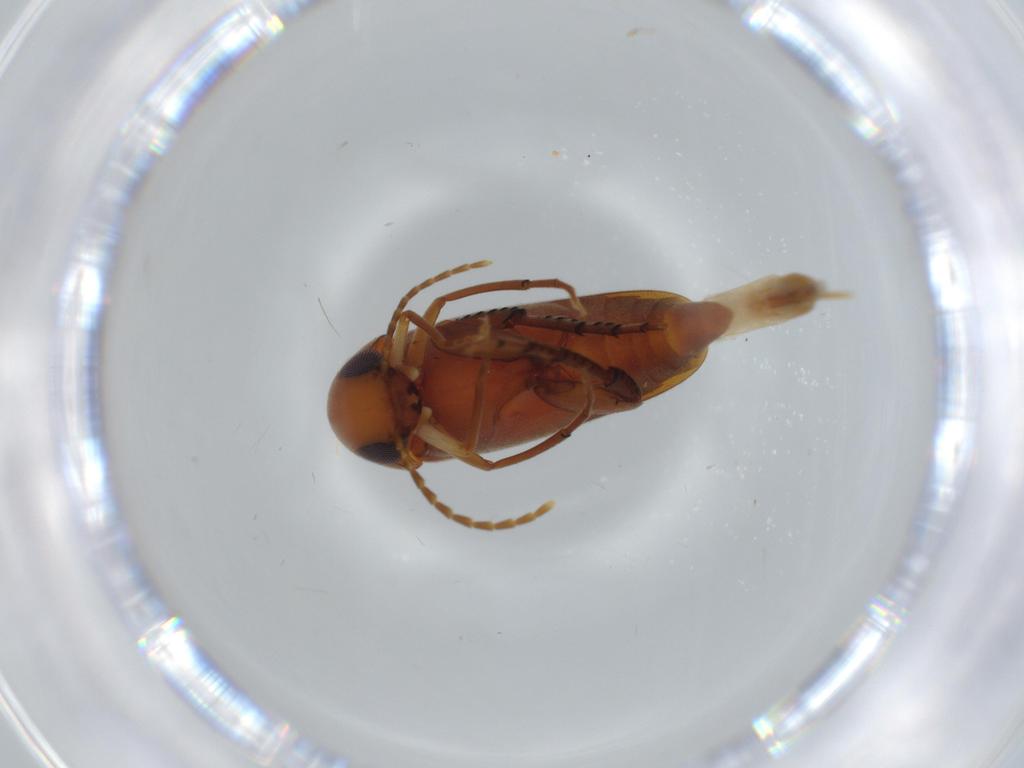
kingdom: Animalia
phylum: Arthropoda
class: Insecta
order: Coleoptera
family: Mordellidae
